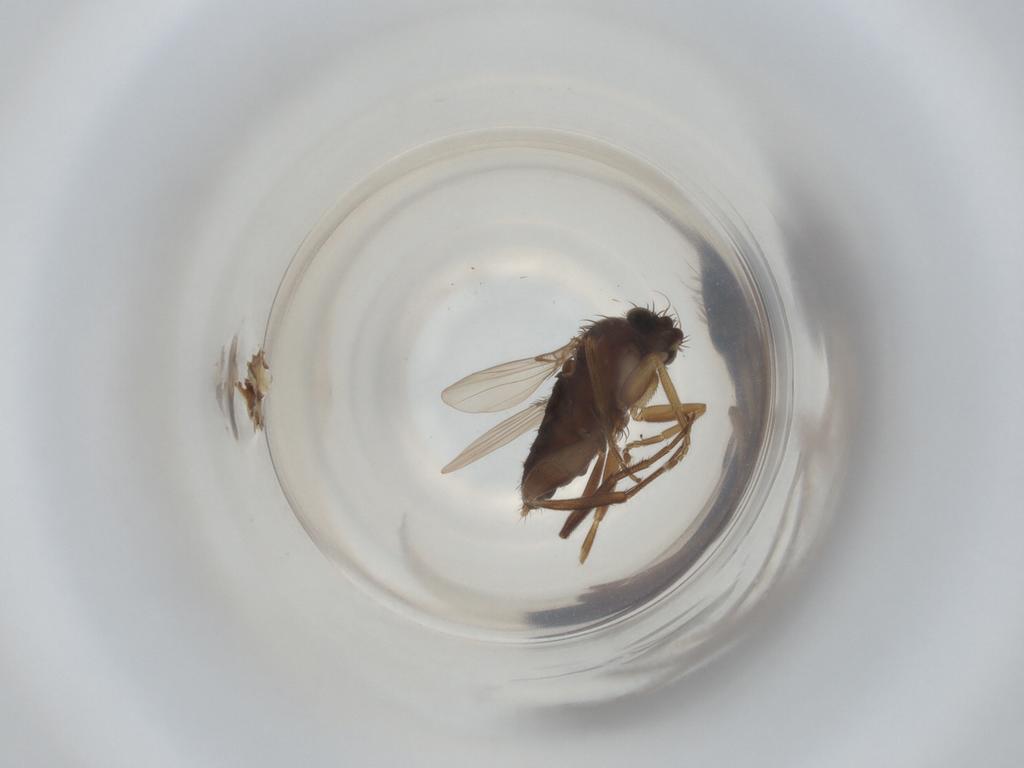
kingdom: Animalia
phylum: Arthropoda
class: Insecta
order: Diptera
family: Phoridae
